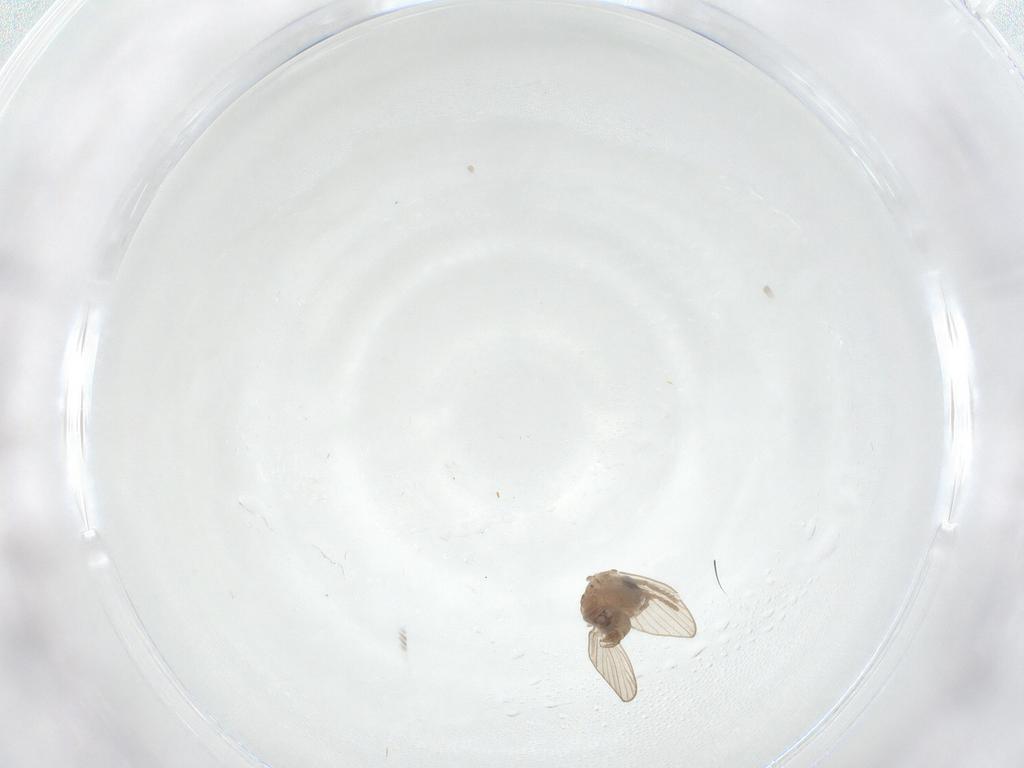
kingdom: Animalia
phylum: Arthropoda
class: Insecta
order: Diptera
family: Psychodidae
